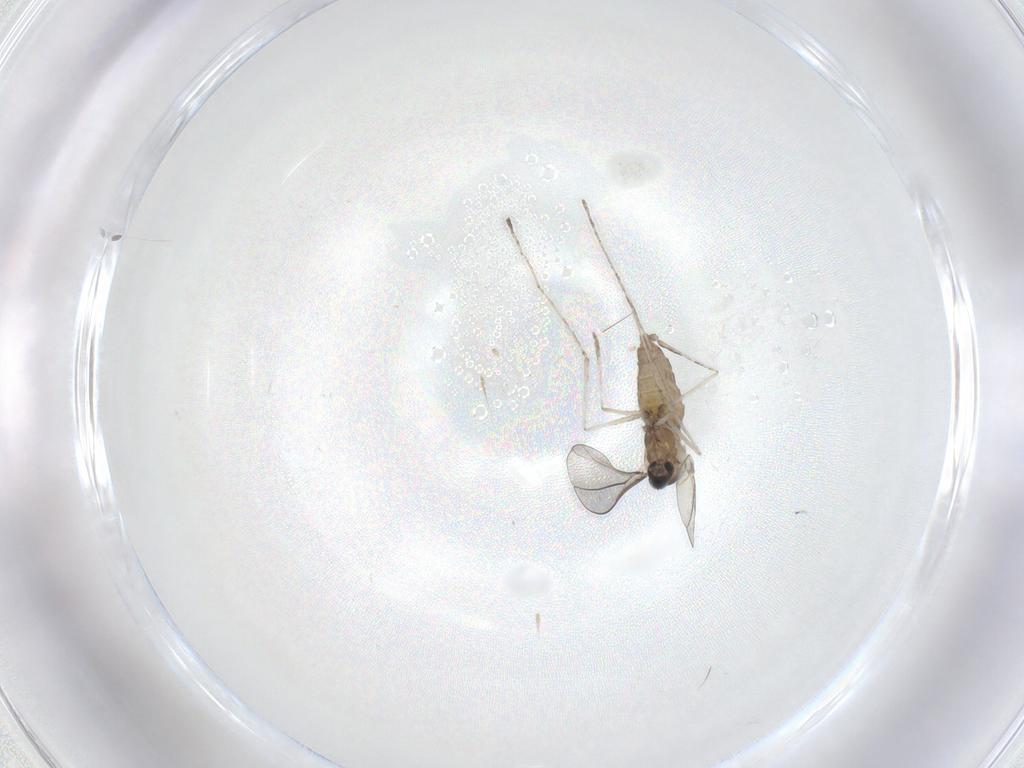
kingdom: Animalia
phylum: Arthropoda
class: Insecta
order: Diptera
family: Cecidomyiidae
